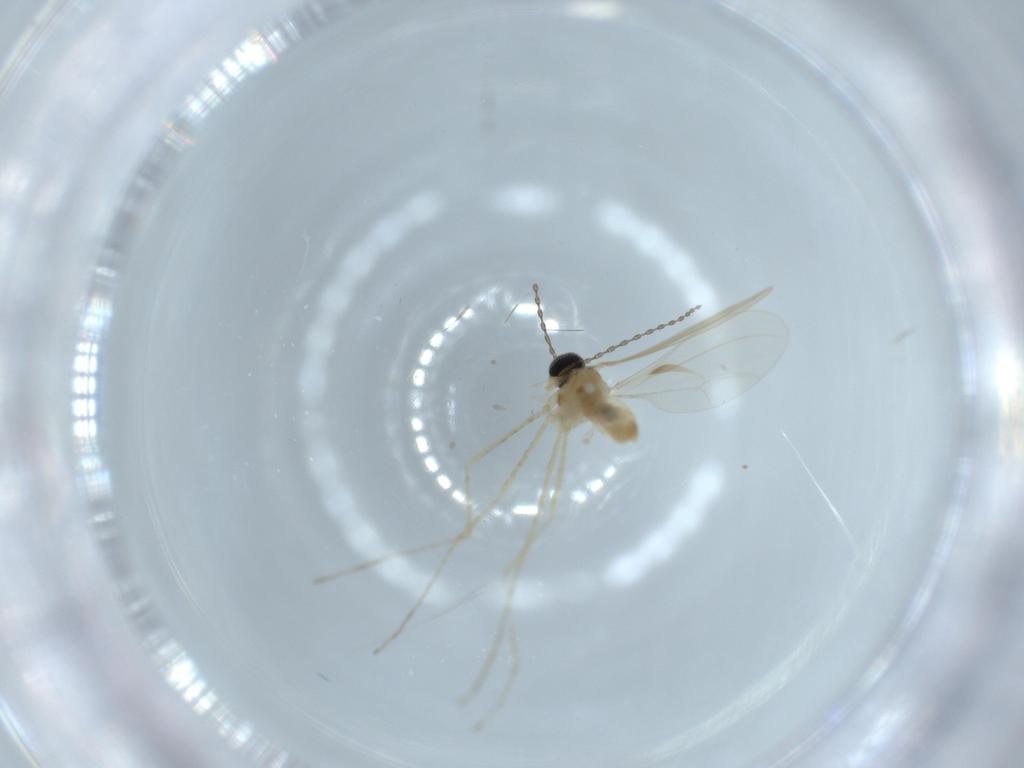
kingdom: Animalia
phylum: Arthropoda
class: Insecta
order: Diptera
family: Cecidomyiidae
